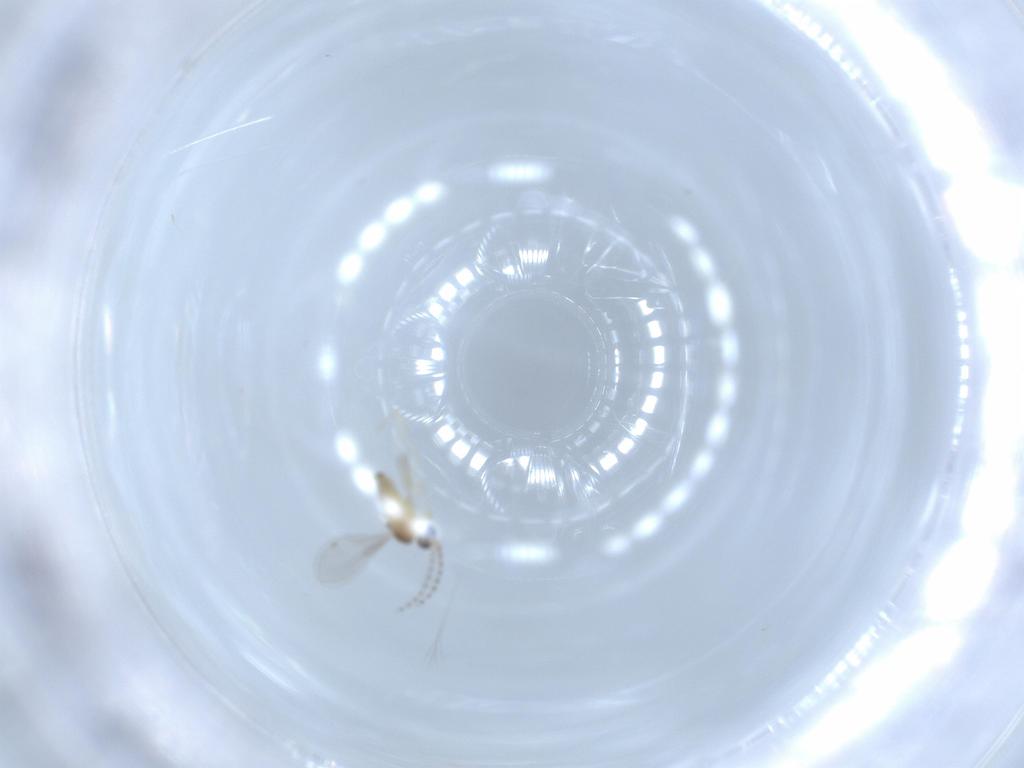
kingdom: Animalia
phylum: Arthropoda
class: Insecta
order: Diptera
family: Cecidomyiidae
